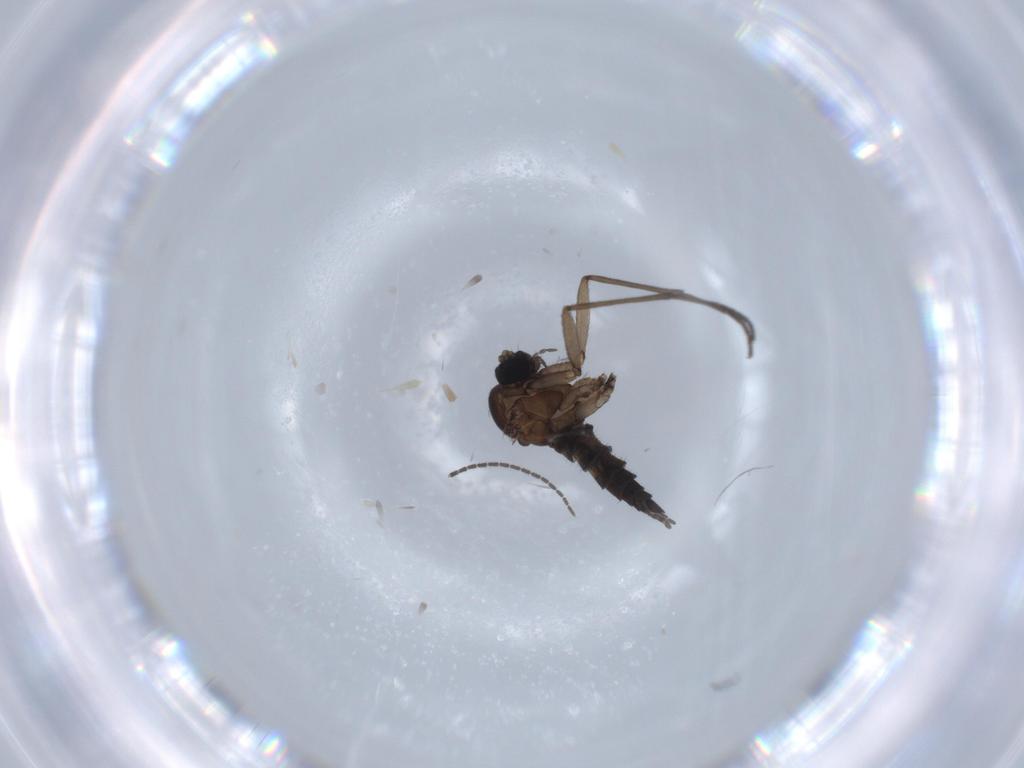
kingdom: Animalia
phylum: Arthropoda
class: Insecta
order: Diptera
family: Sciaridae
